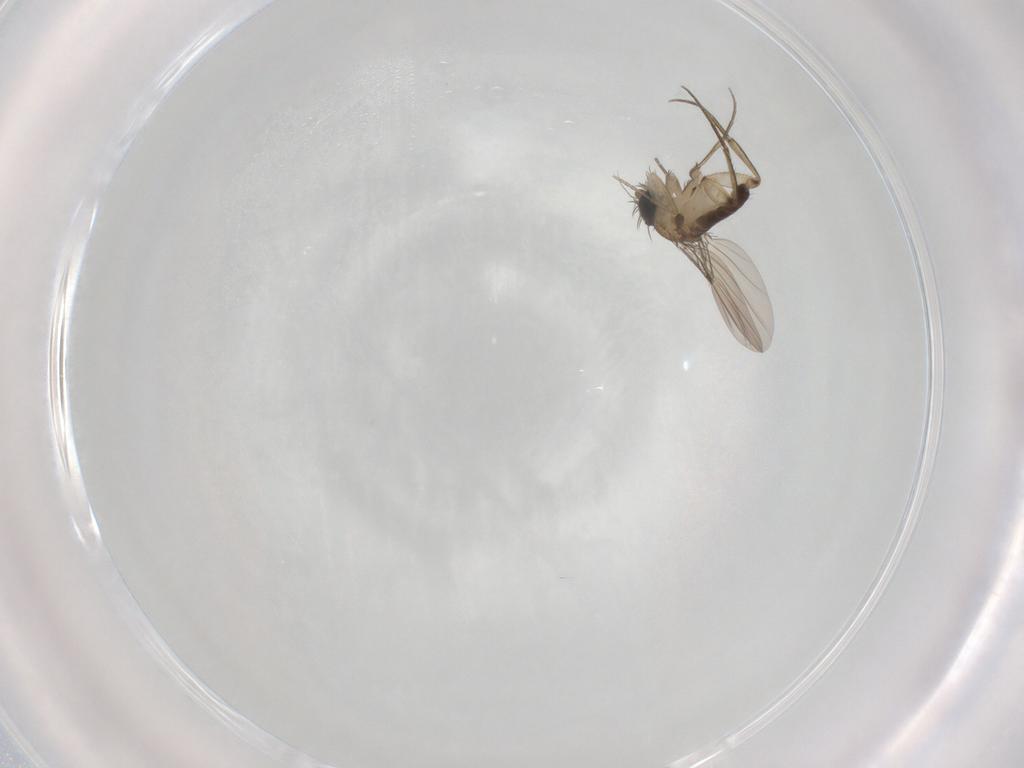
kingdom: Animalia
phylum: Arthropoda
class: Insecta
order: Diptera
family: Phoridae
